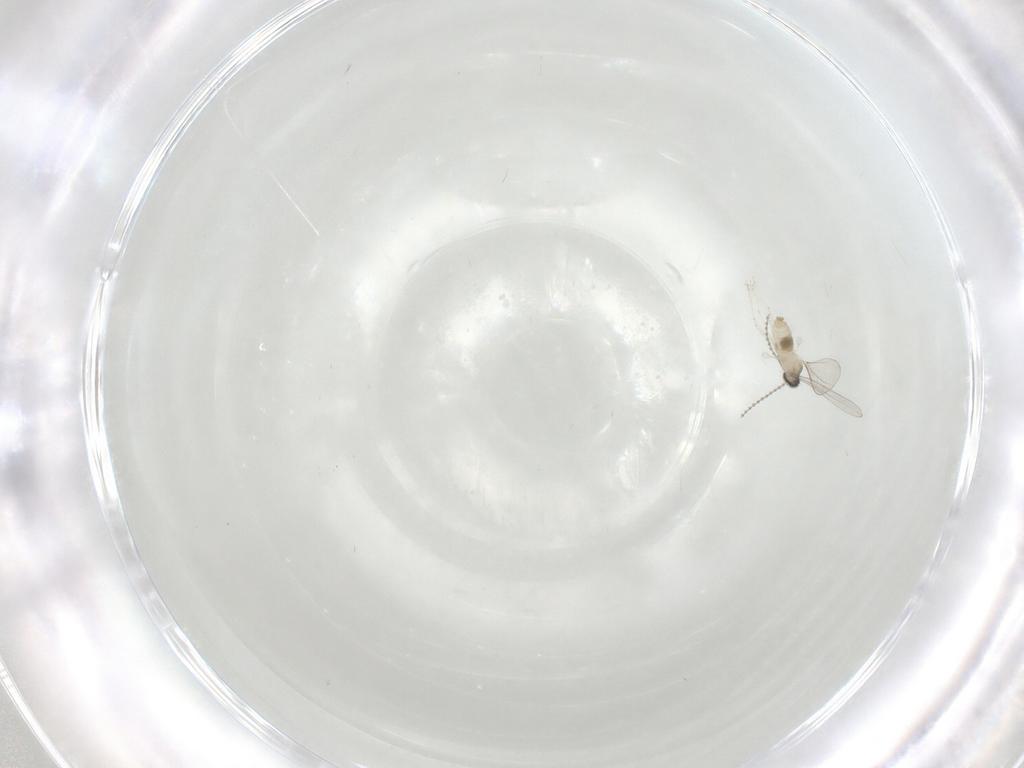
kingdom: Animalia
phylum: Arthropoda
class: Insecta
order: Diptera
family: Cecidomyiidae
